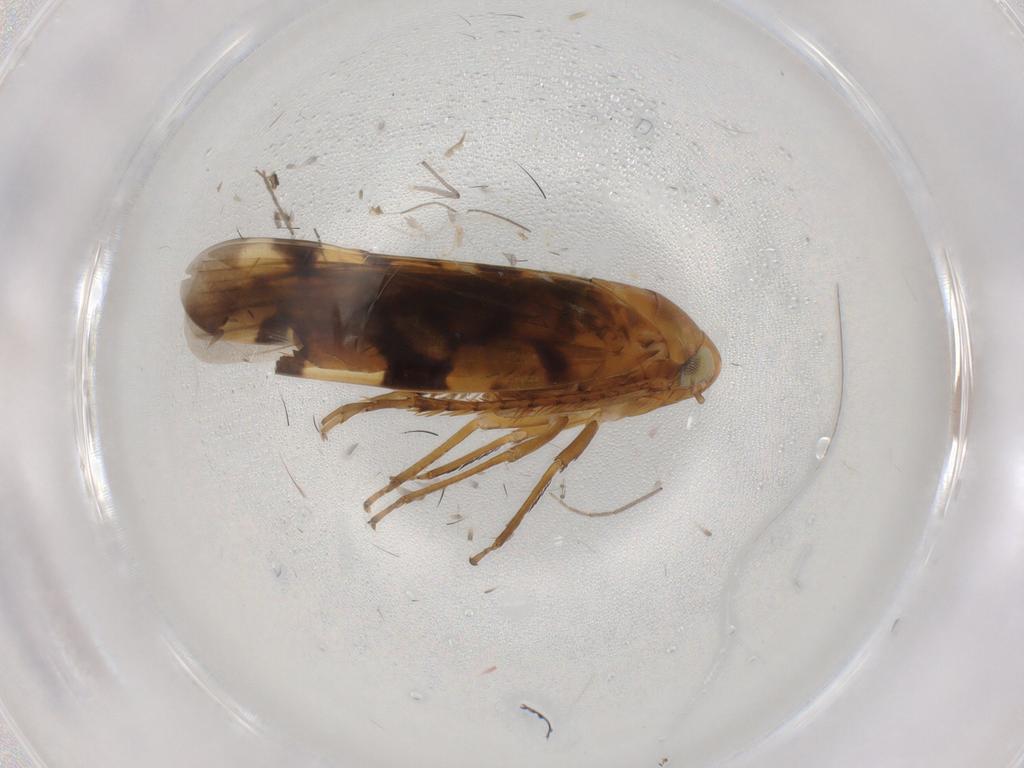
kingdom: Animalia
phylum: Arthropoda
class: Insecta
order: Hemiptera
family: Cicadellidae
